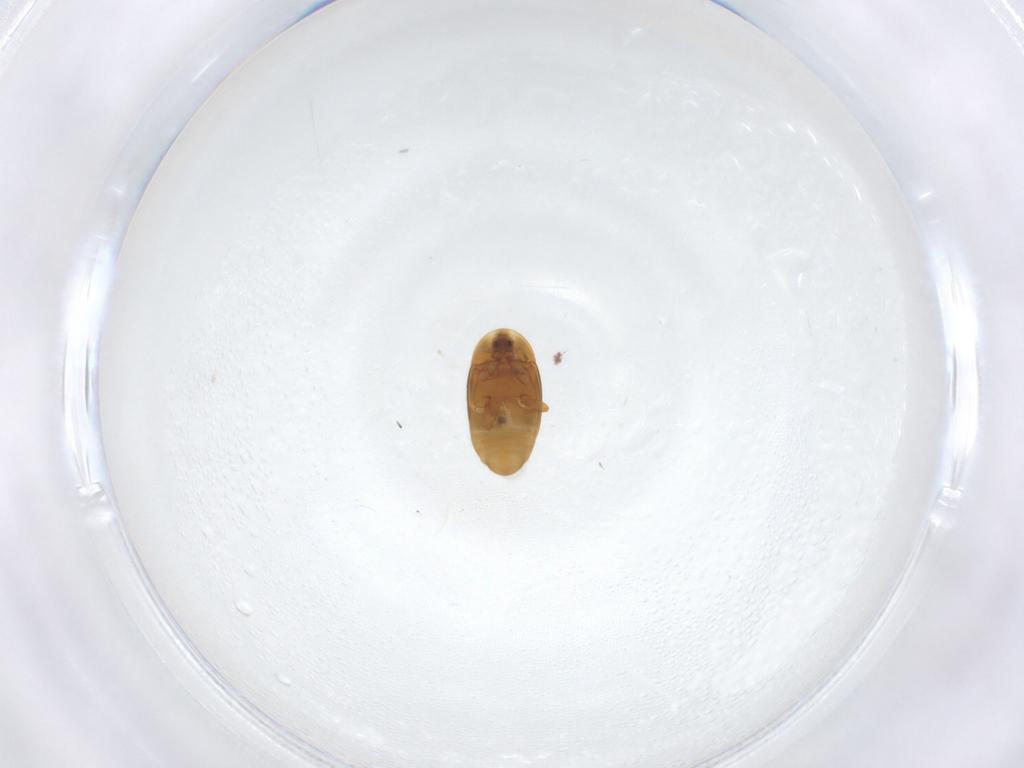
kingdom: Animalia
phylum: Arthropoda
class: Insecta
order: Coleoptera
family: Corylophidae
